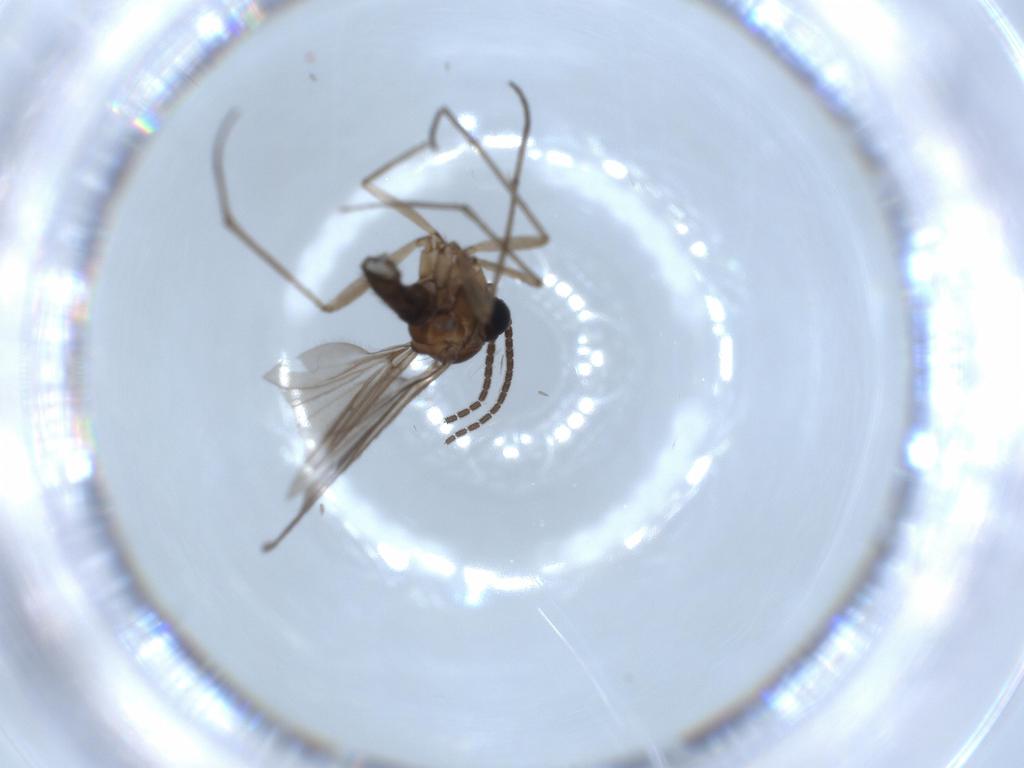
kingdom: Animalia
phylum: Arthropoda
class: Insecta
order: Diptera
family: Sciaridae
